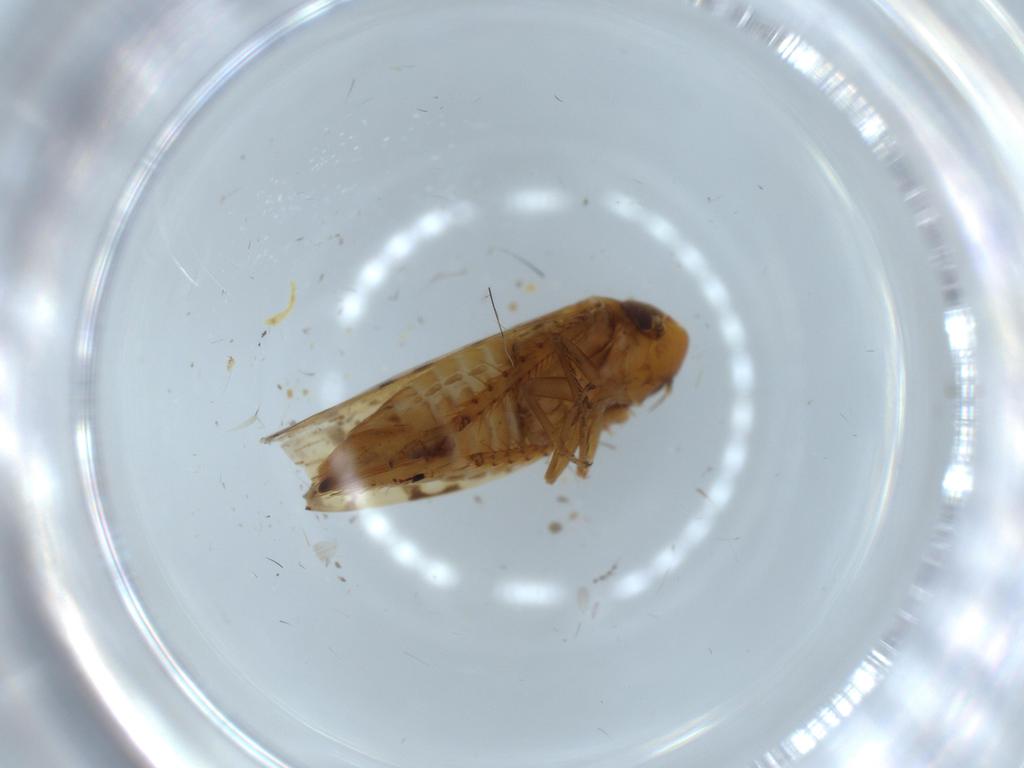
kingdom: Animalia
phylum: Arthropoda
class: Insecta
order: Hemiptera
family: Cicadellidae
